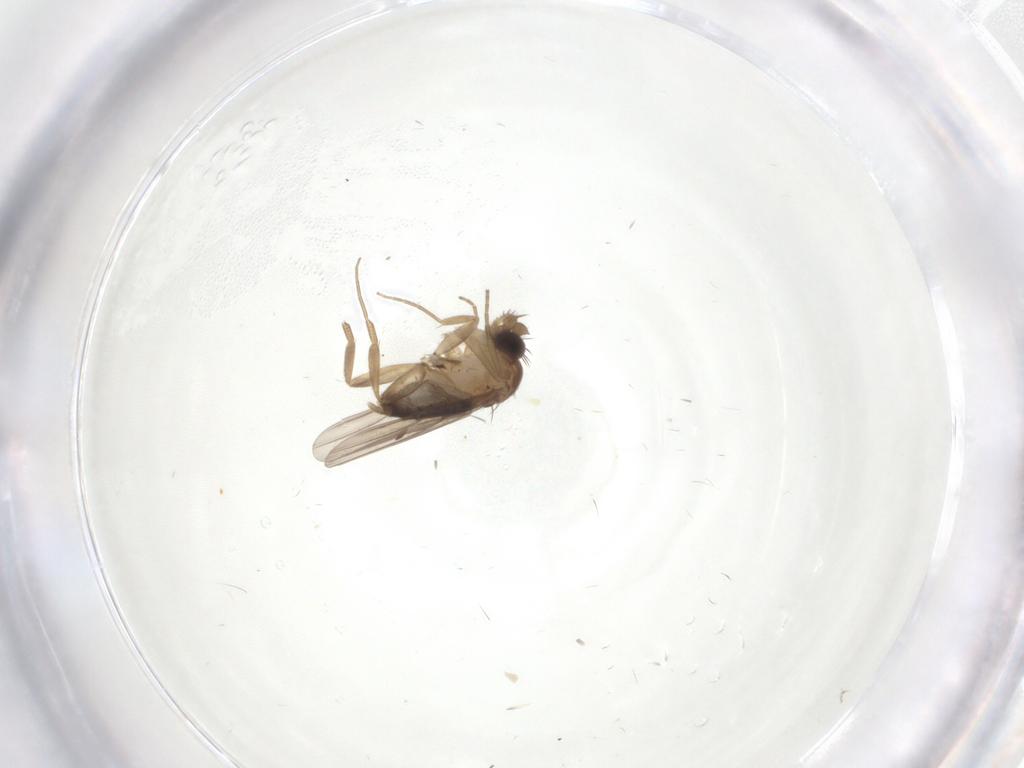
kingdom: Animalia
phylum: Arthropoda
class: Insecta
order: Diptera
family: Phoridae
